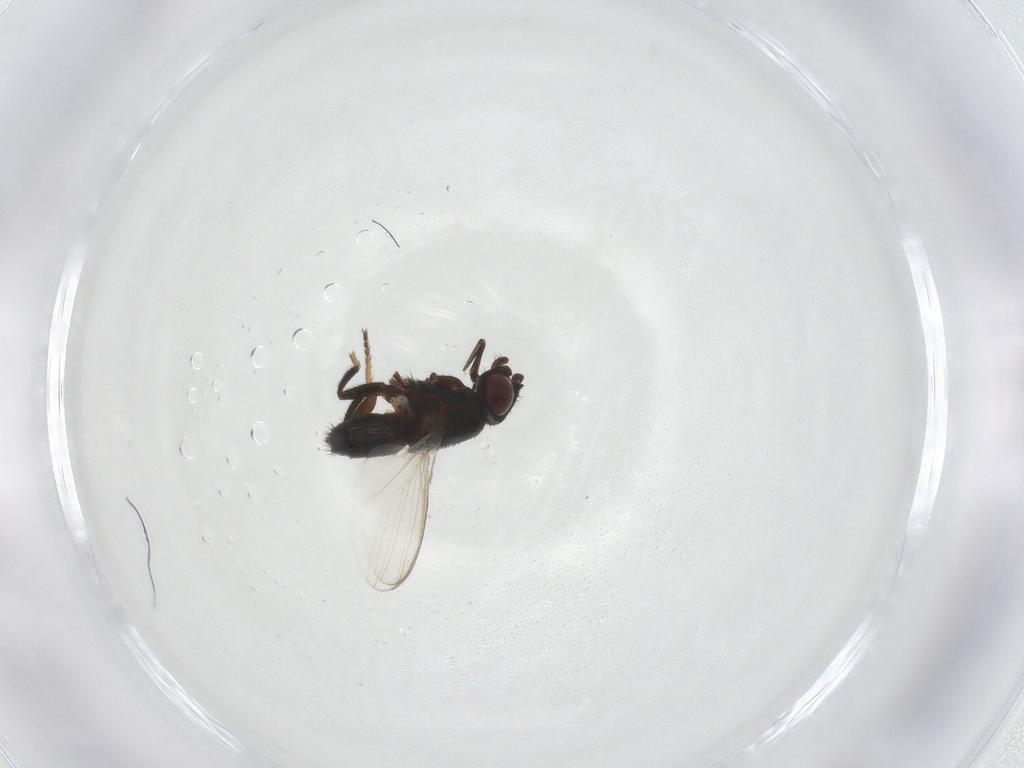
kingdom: Animalia
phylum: Arthropoda
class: Insecta
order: Diptera
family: Milichiidae
